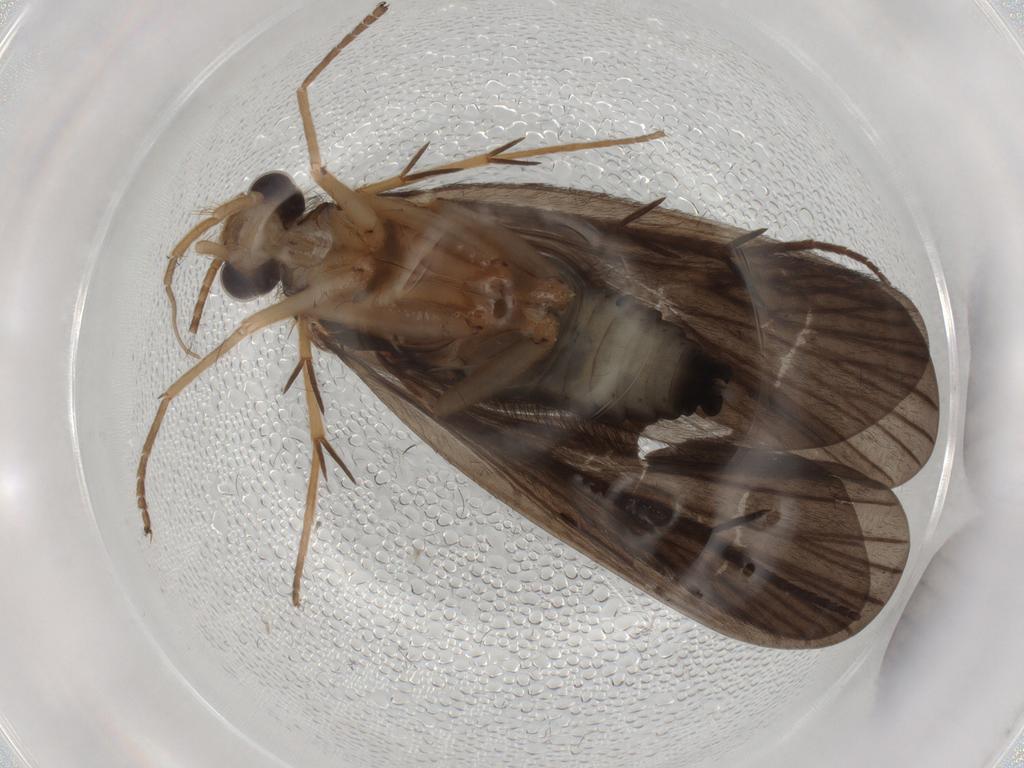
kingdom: Animalia
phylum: Arthropoda
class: Insecta
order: Trichoptera
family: Philopotamidae
